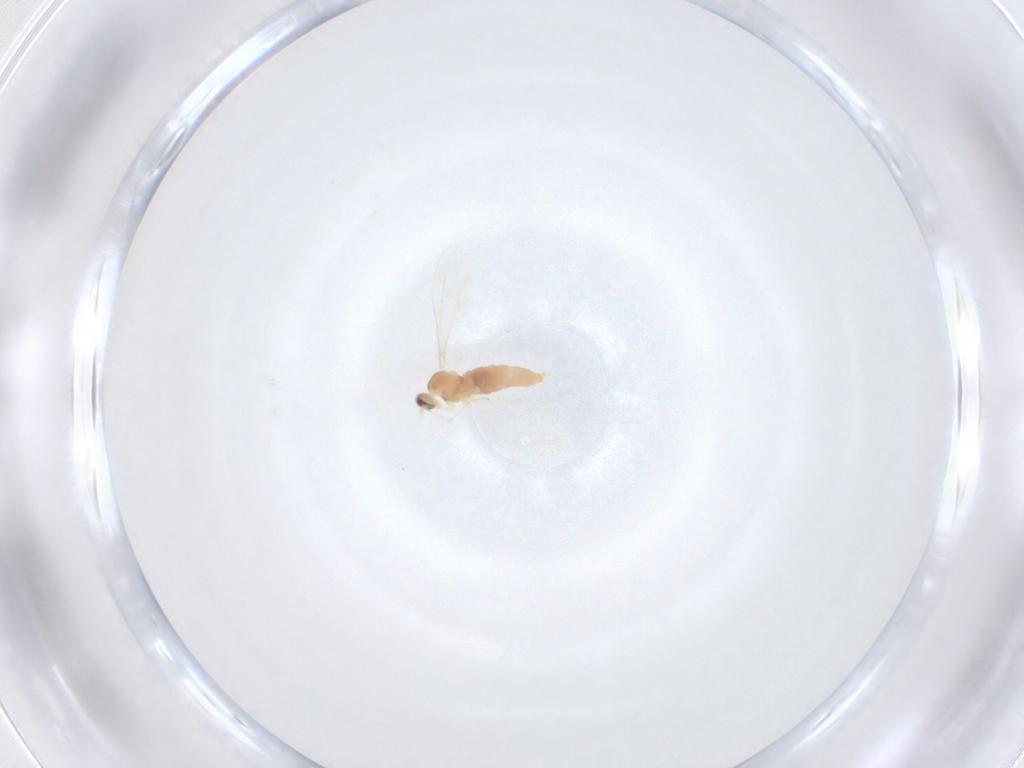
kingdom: Animalia
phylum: Arthropoda
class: Insecta
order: Diptera
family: Cecidomyiidae
